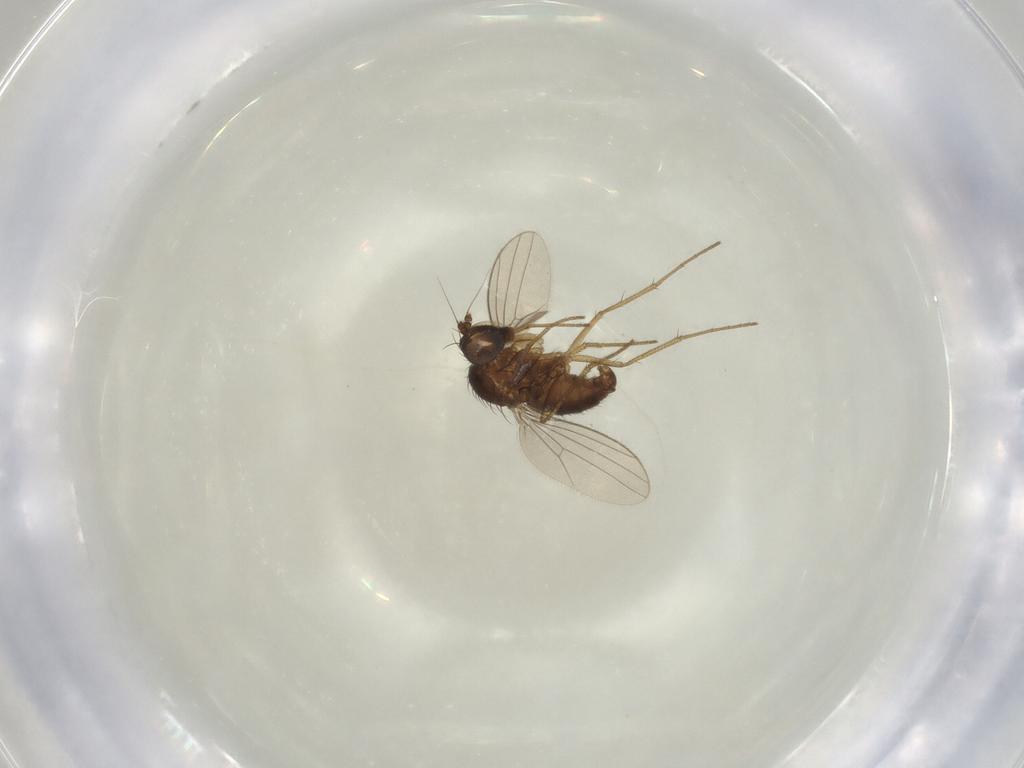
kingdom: Animalia
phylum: Arthropoda
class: Insecta
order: Diptera
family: Dolichopodidae
